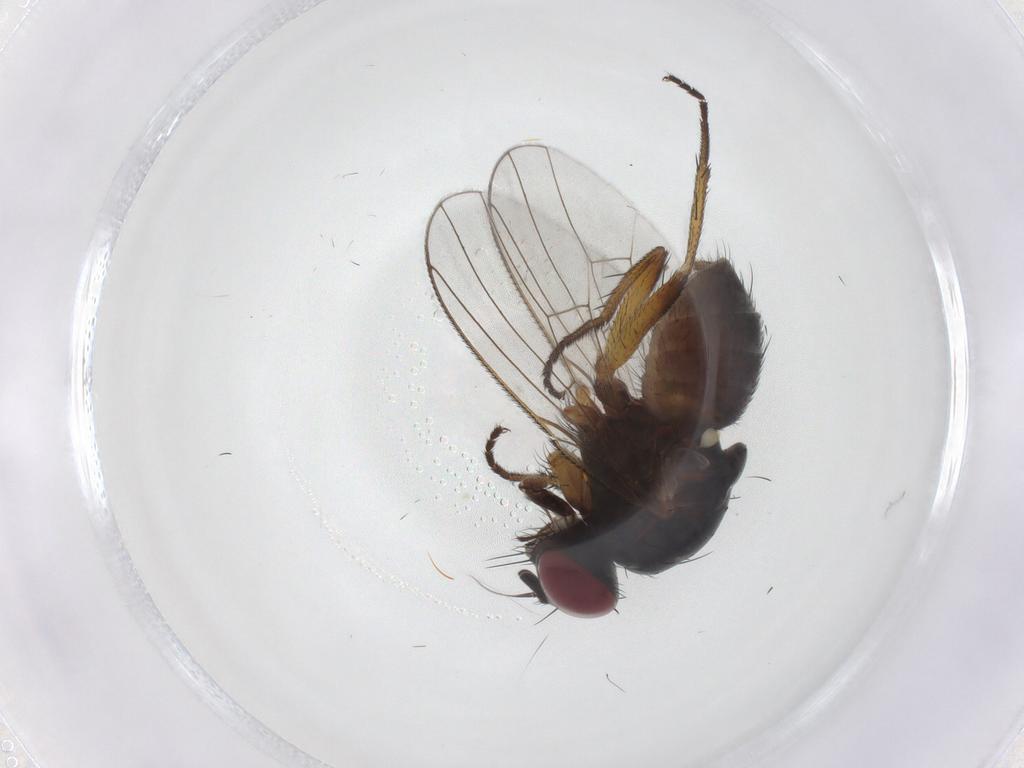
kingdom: Animalia
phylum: Arthropoda
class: Insecta
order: Diptera
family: Muscidae
